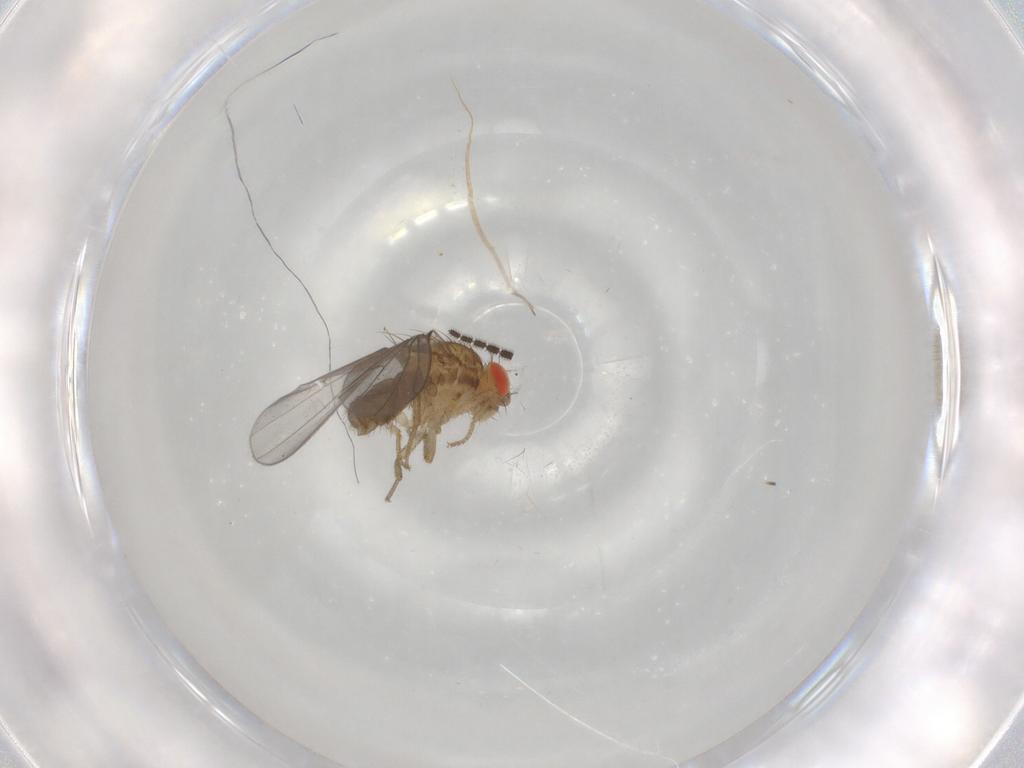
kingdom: Animalia
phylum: Arthropoda
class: Insecta
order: Diptera
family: Drosophilidae
